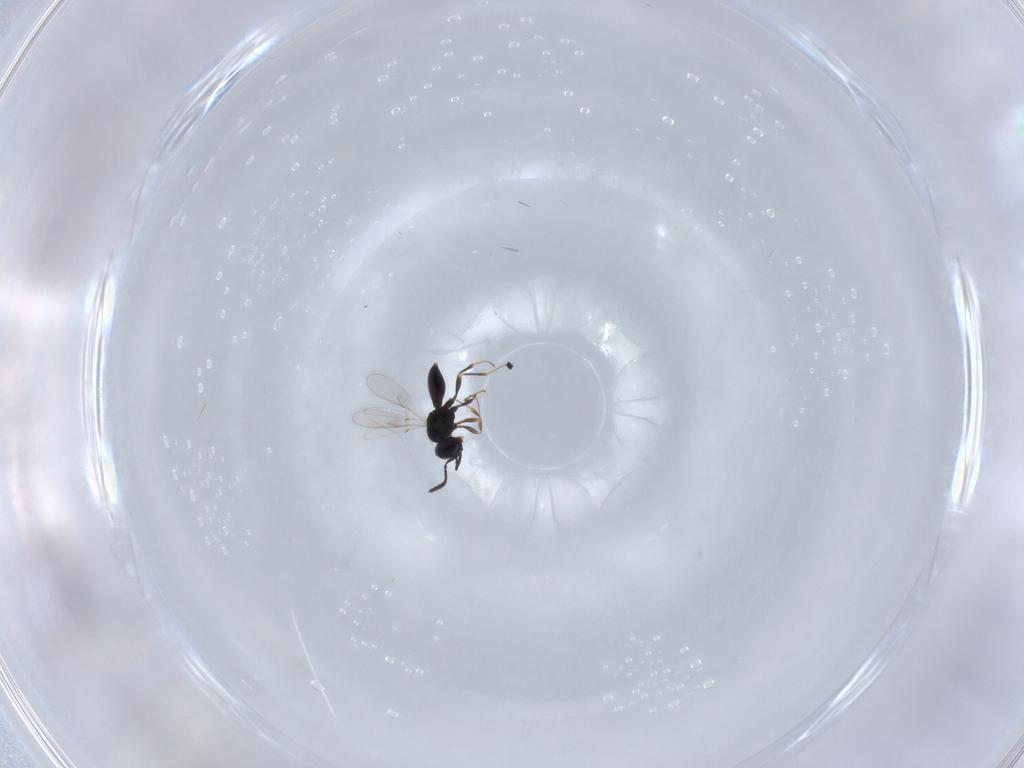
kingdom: Animalia
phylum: Arthropoda
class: Insecta
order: Hymenoptera
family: Scelionidae
